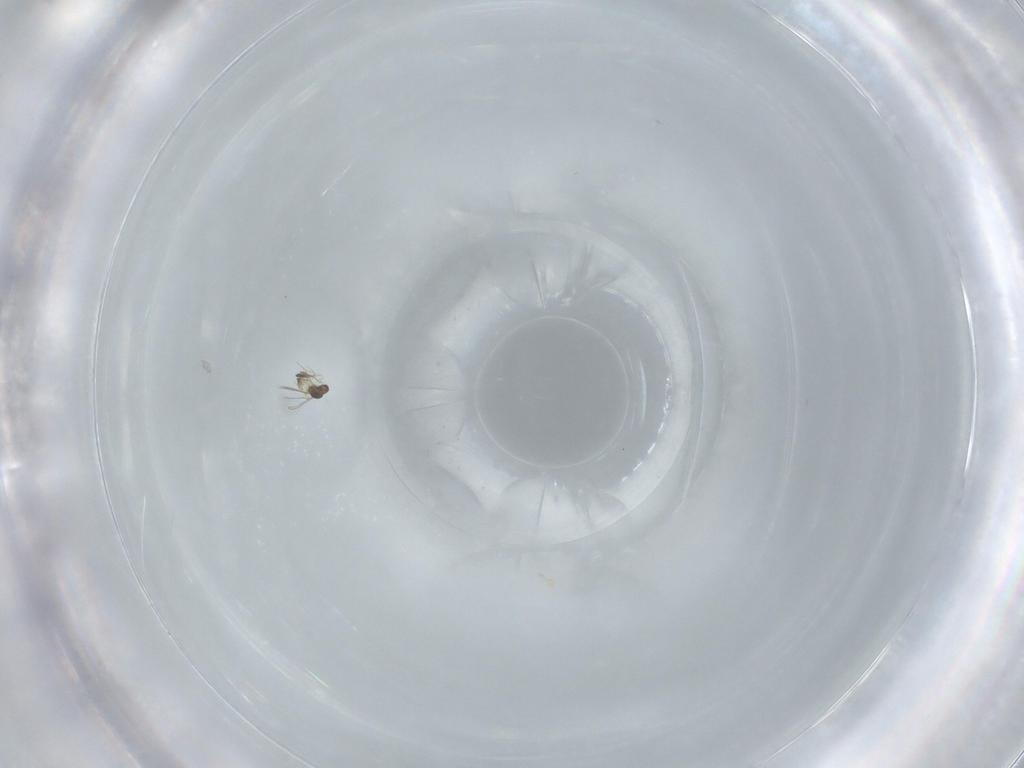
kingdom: Animalia
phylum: Arthropoda
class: Insecta
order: Hymenoptera
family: Mymaridae
